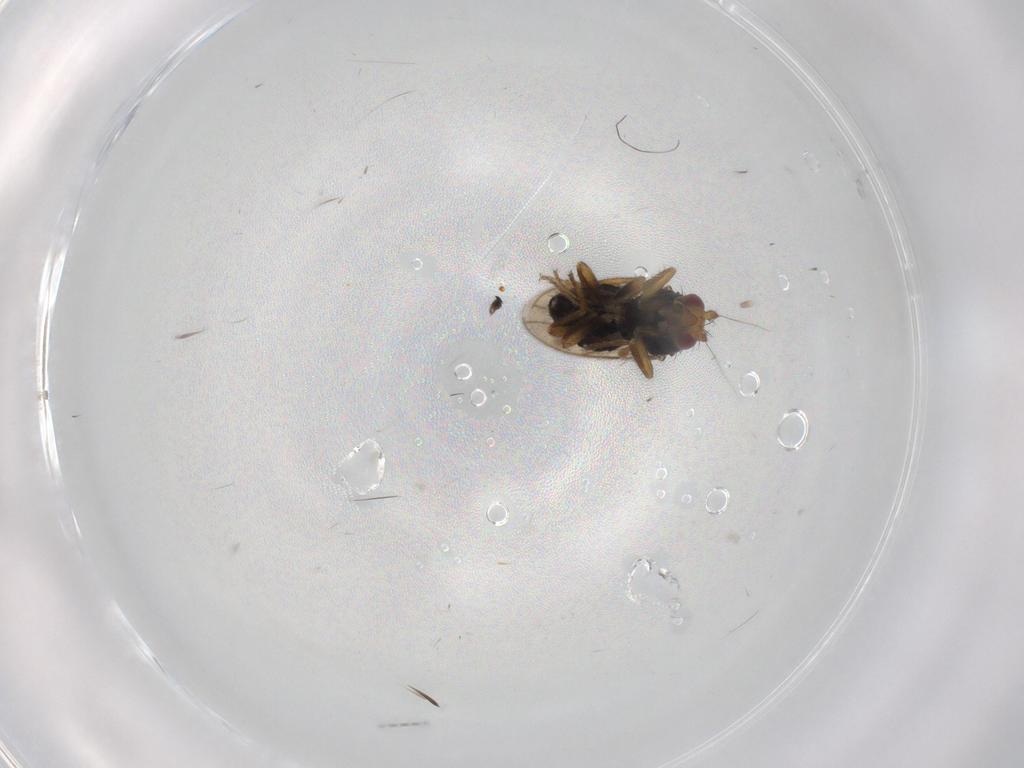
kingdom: Animalia
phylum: Arthropoda
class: Insecta
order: Diptera
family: Sphaeroceridae
